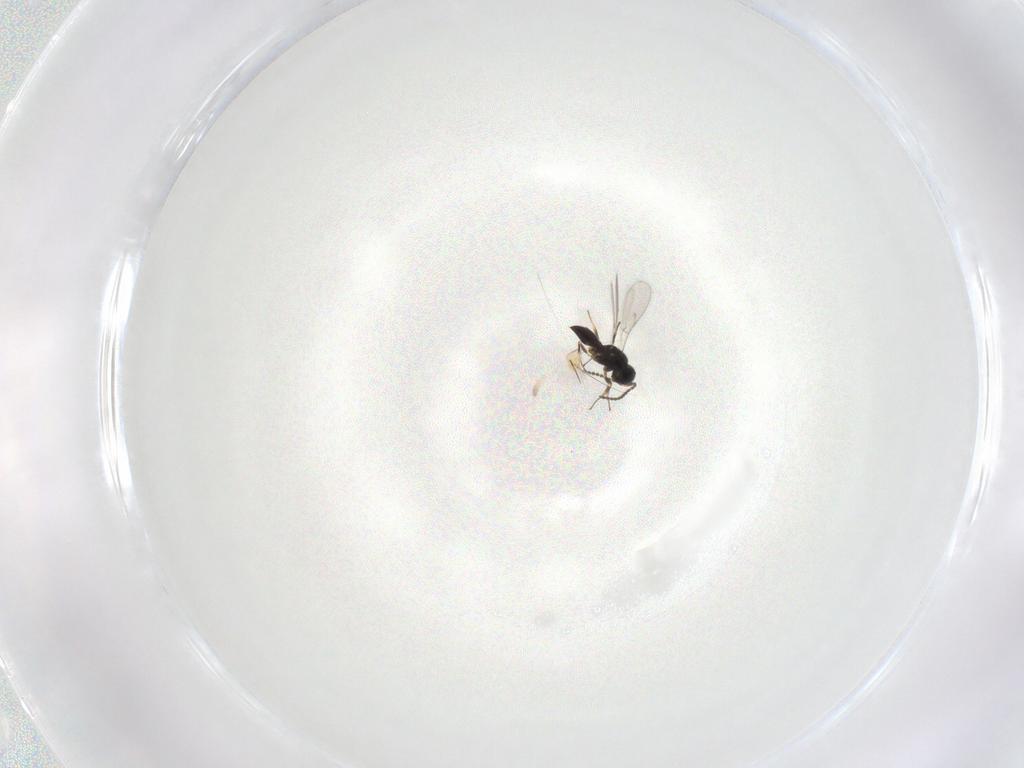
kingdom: Animalia
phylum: Arthropoda
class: Insecta
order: Hymenoptera
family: Scelionidae
